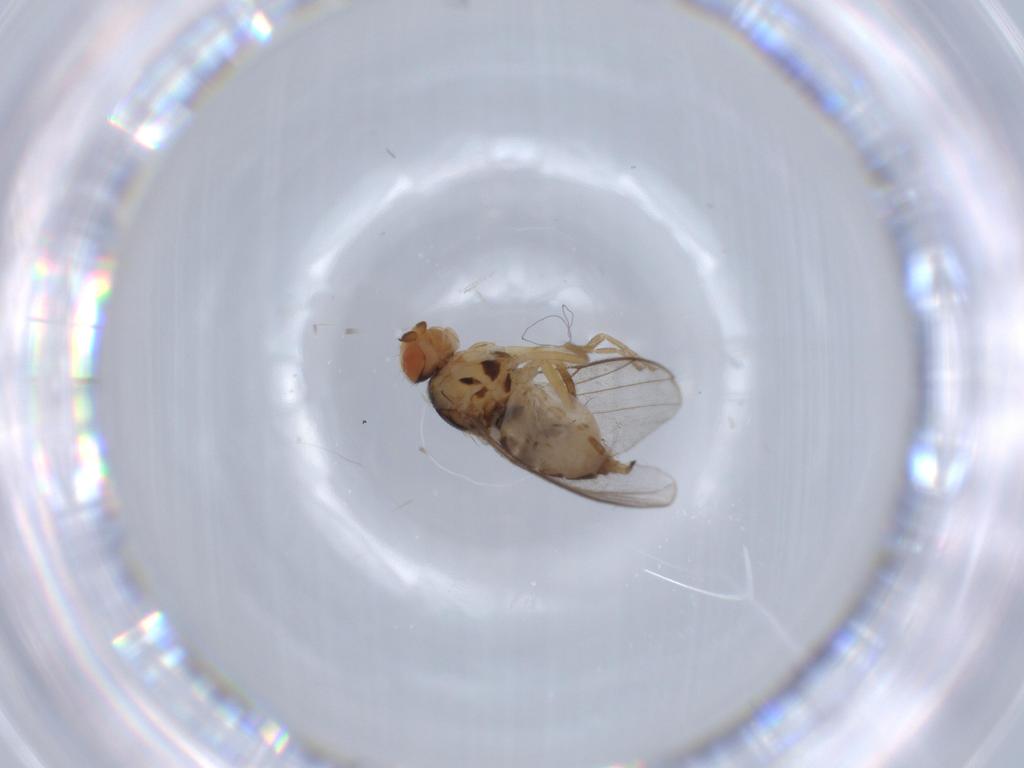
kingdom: Animalia
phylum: Arthropoda
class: Insecta
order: Diptera
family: Chloropidae
